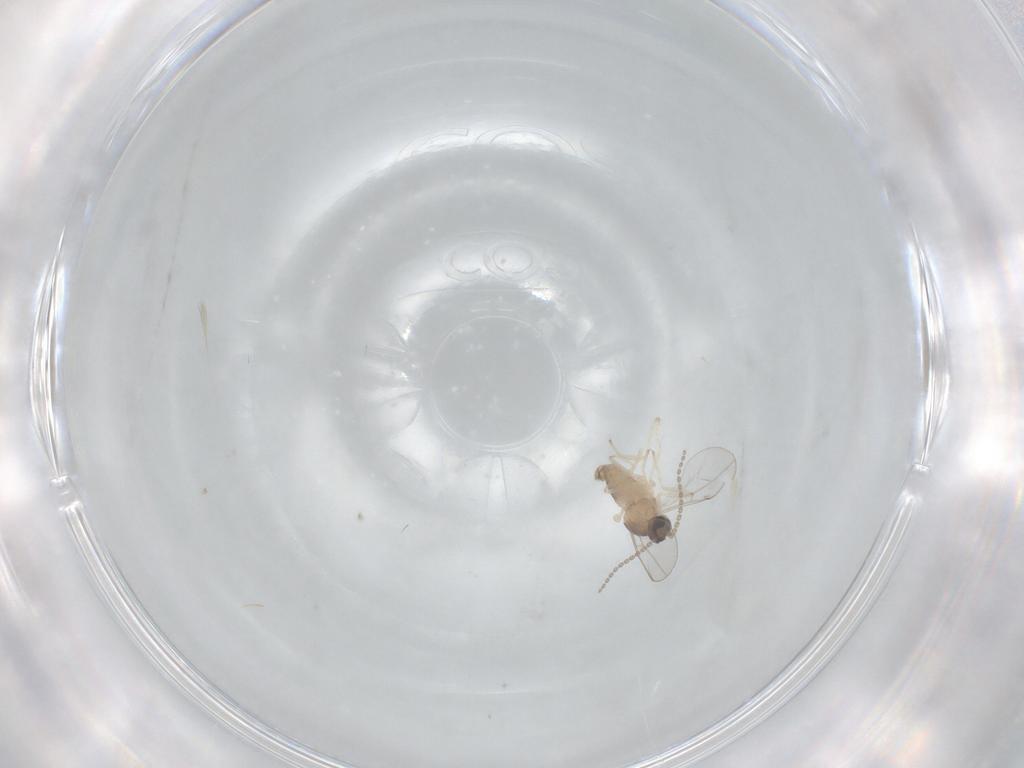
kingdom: Animalia
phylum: Arthropoda
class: Insecta
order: Diptera
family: Cecidomyiidae
